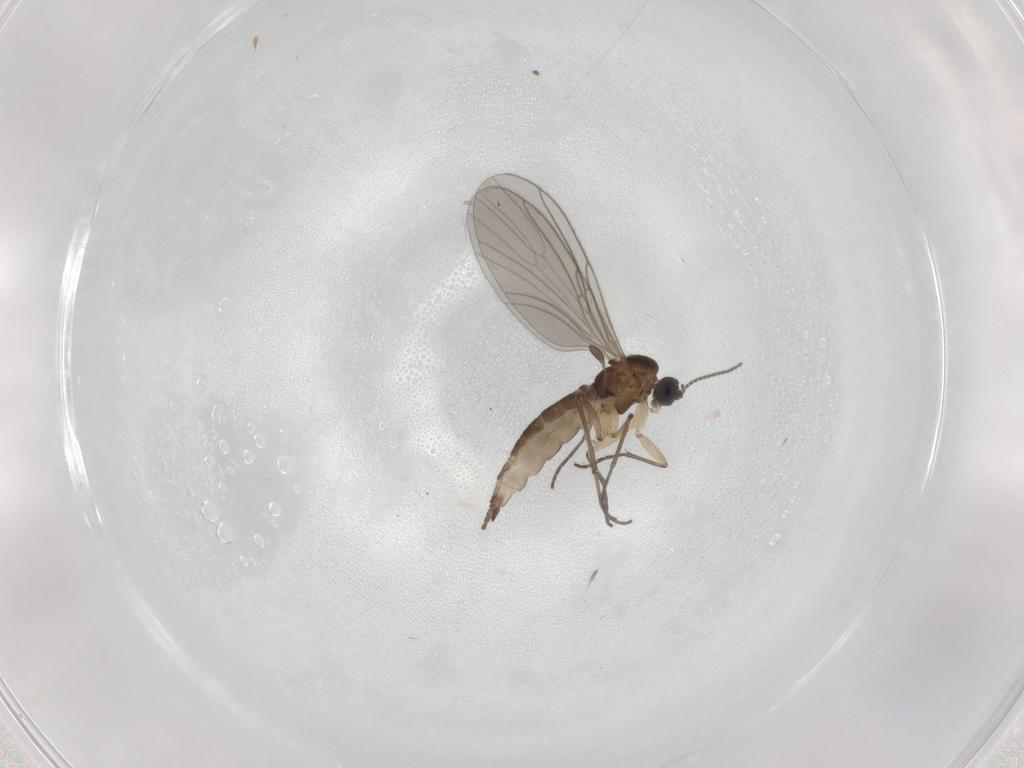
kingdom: Animalia
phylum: Arthropoda
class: Insecta
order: Diptera
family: Sciaridae
